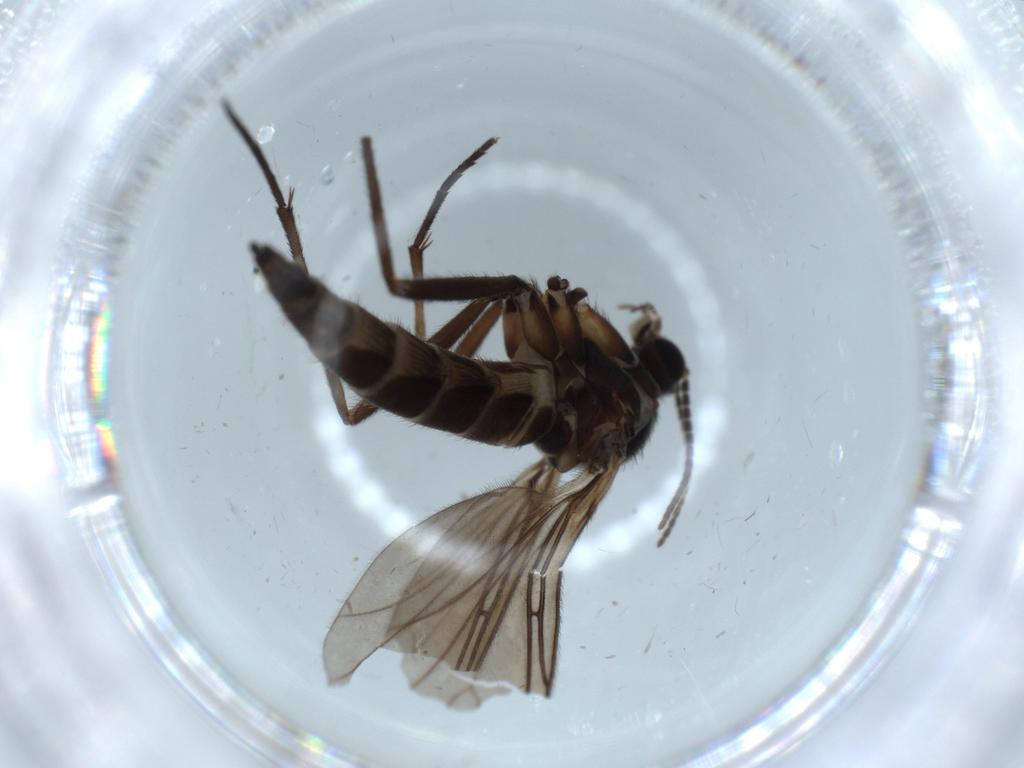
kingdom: Animalia
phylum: Arthropoda
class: Insecta
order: Diptera
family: Sciaridae
